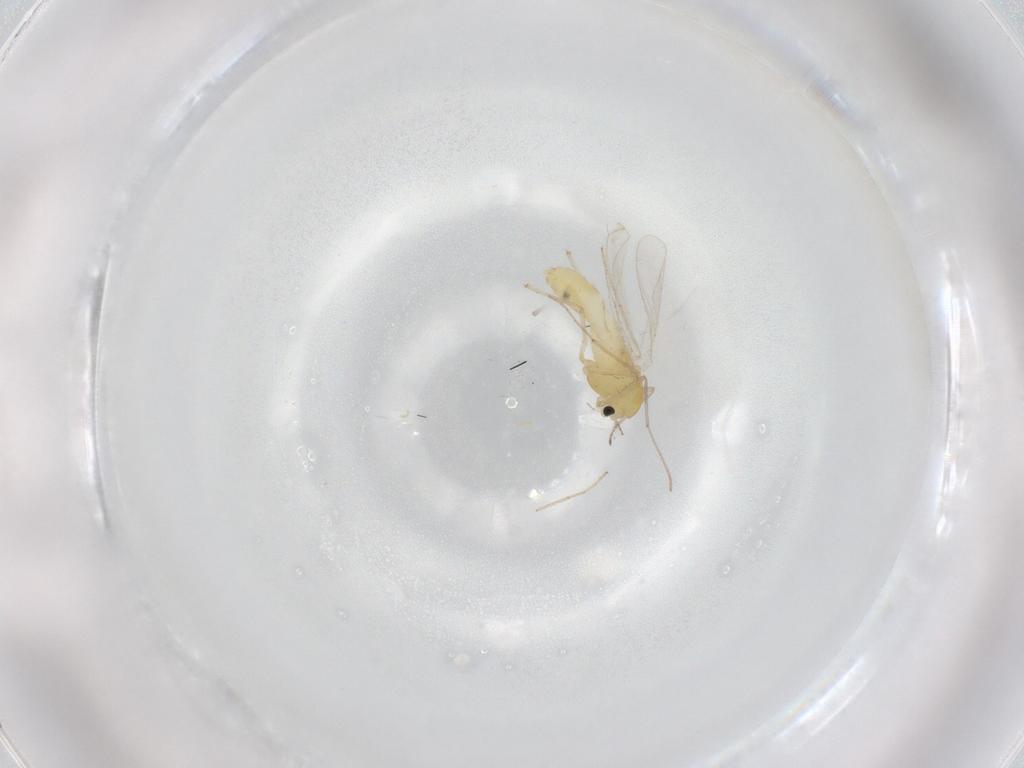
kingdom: Animalia
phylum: Arthropoda
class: Insecta
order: Diptera
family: Chironomidae
